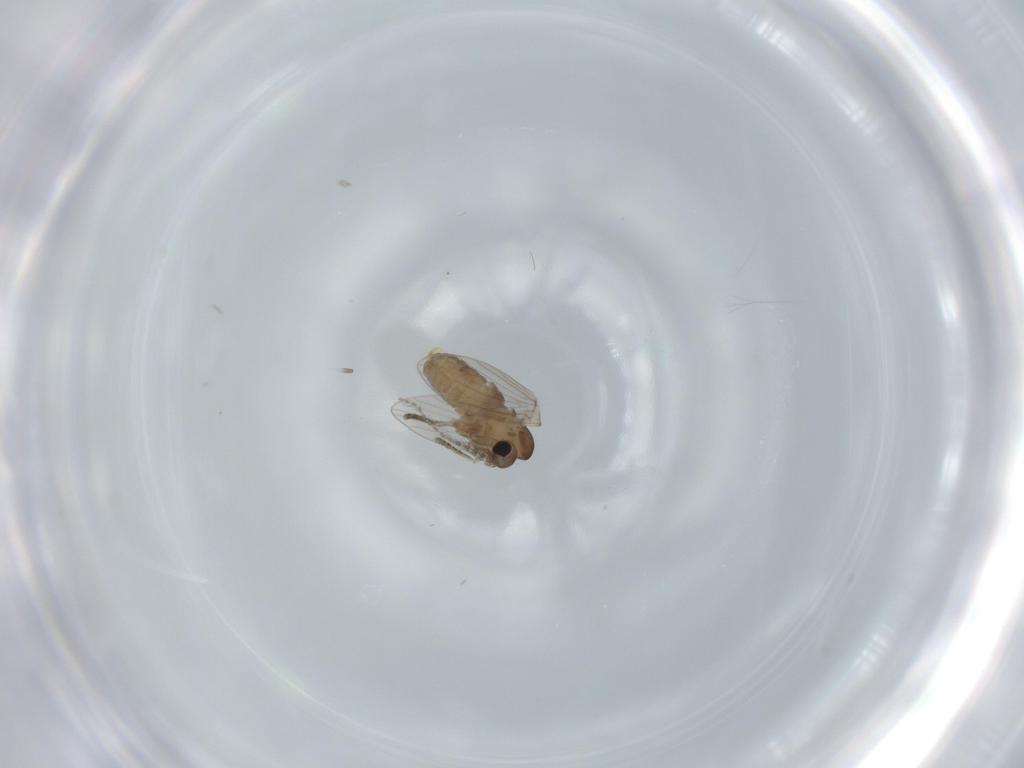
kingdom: Animalia
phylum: Arthropoda
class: Insecta
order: Diptera
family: Psychodidae
